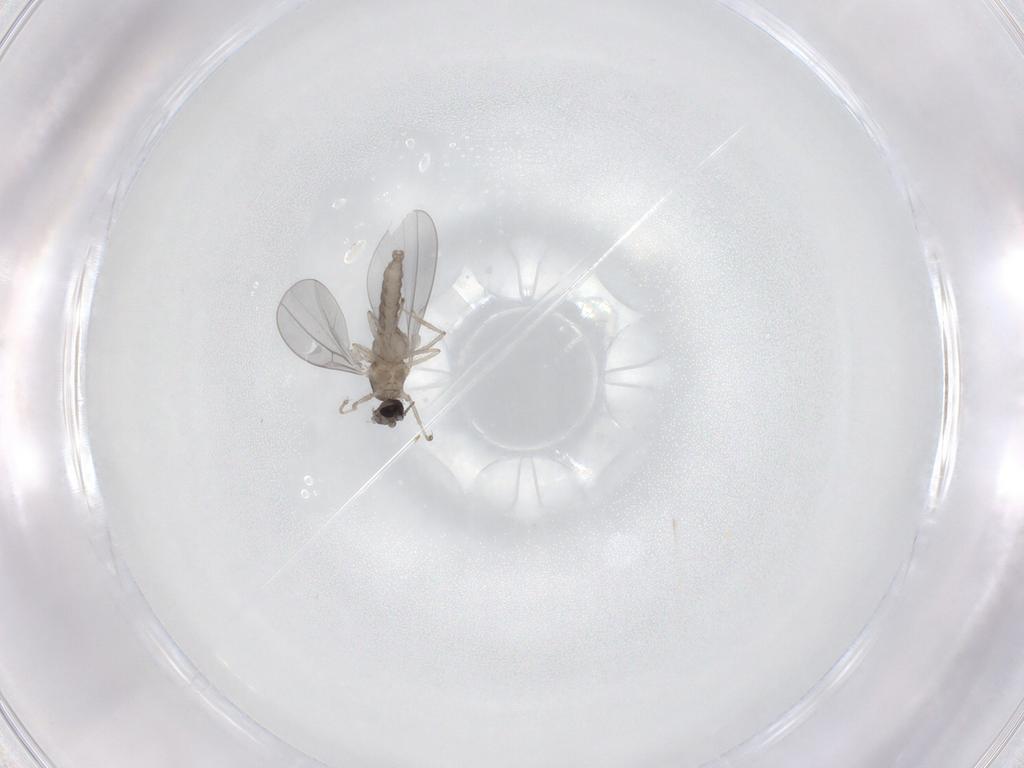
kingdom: Animalia
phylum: Arthropoda
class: Insecta
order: Diptera
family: Cecidomyiidae
